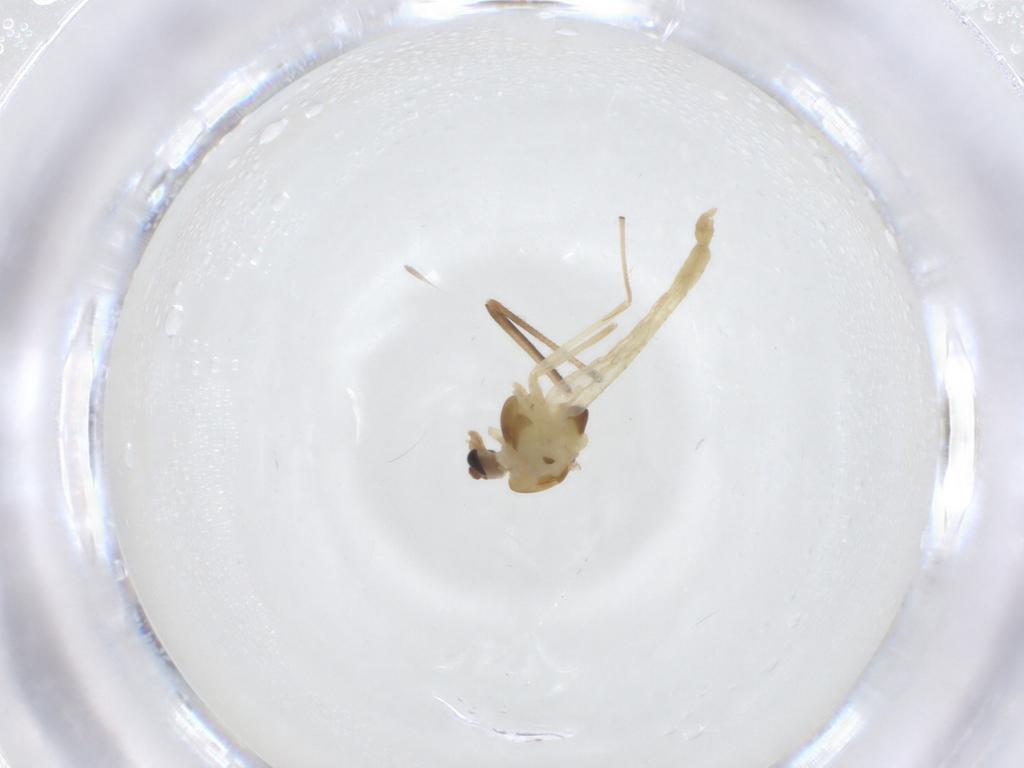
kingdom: Animalia
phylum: Arthropoda
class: Insecta
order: Diptera
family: Chironomidae
